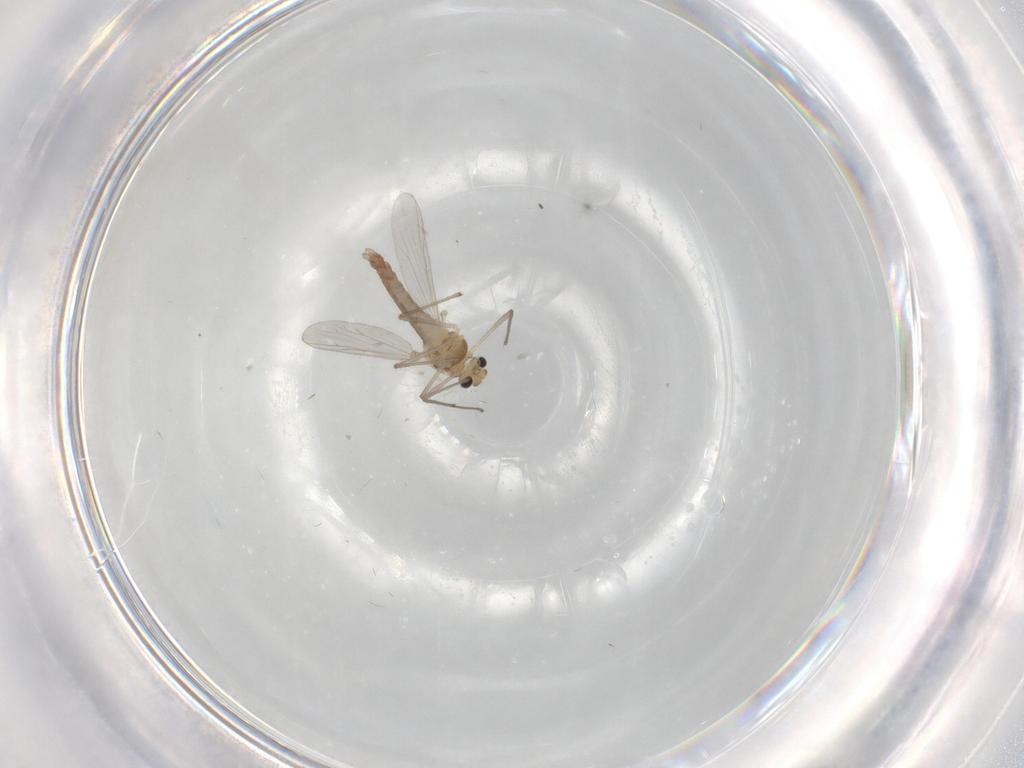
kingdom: Animalia
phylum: Arthropoda
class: Insecta
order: Diptera
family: Chironomidae
